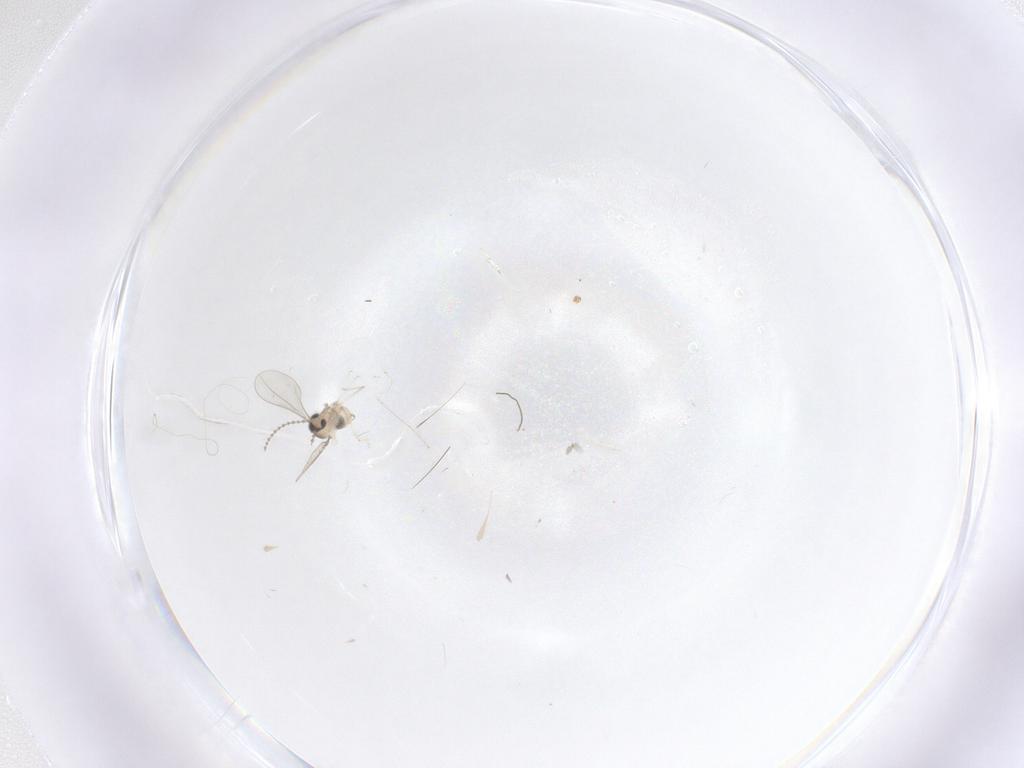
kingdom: Animalia
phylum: Arthropoda
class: Insecta
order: Diptera
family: Cecidomyiidae
